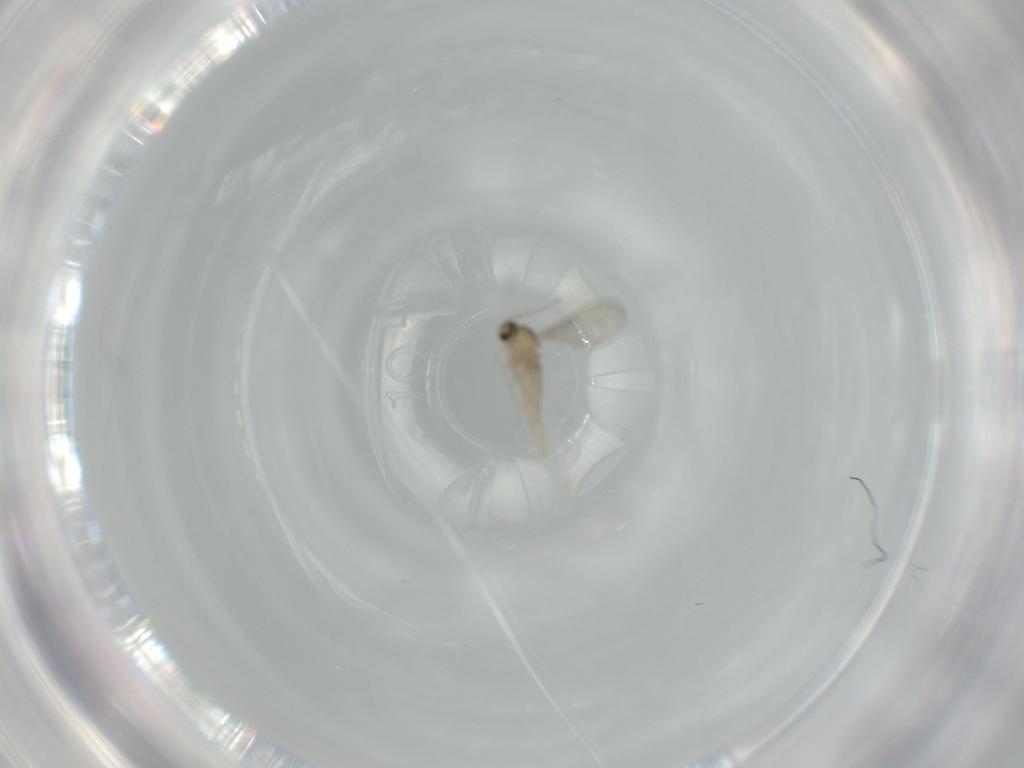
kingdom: Animalia
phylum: Arthropoda
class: Insecta
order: Diptera
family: Cecidomyiidae
